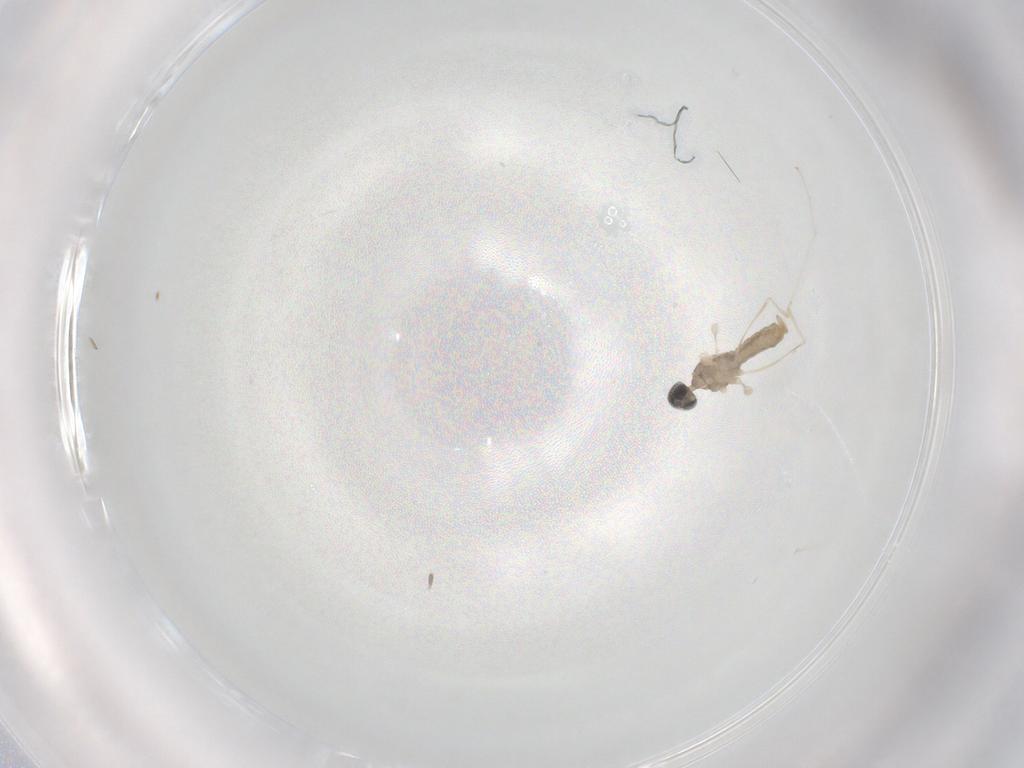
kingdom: Animalia
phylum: Arthropoda
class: Insecta
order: Diptera
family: Cecidomyiidae
